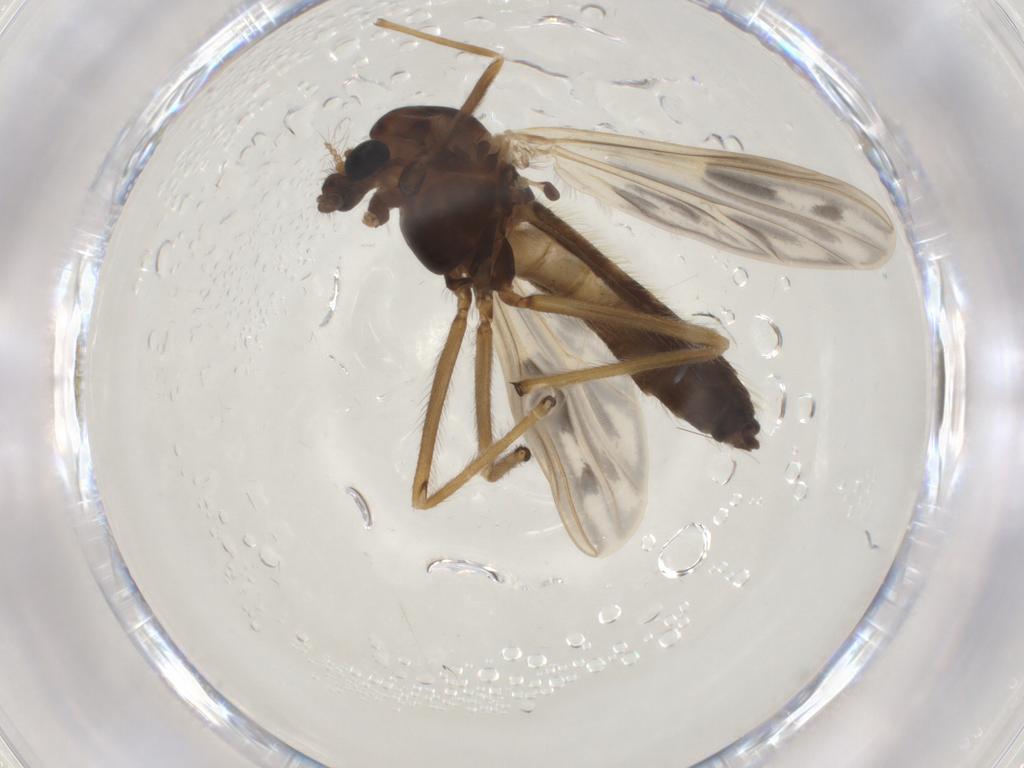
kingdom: Animalia
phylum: Arthropoda
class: Insecta
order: Diptera
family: Chironomidae
